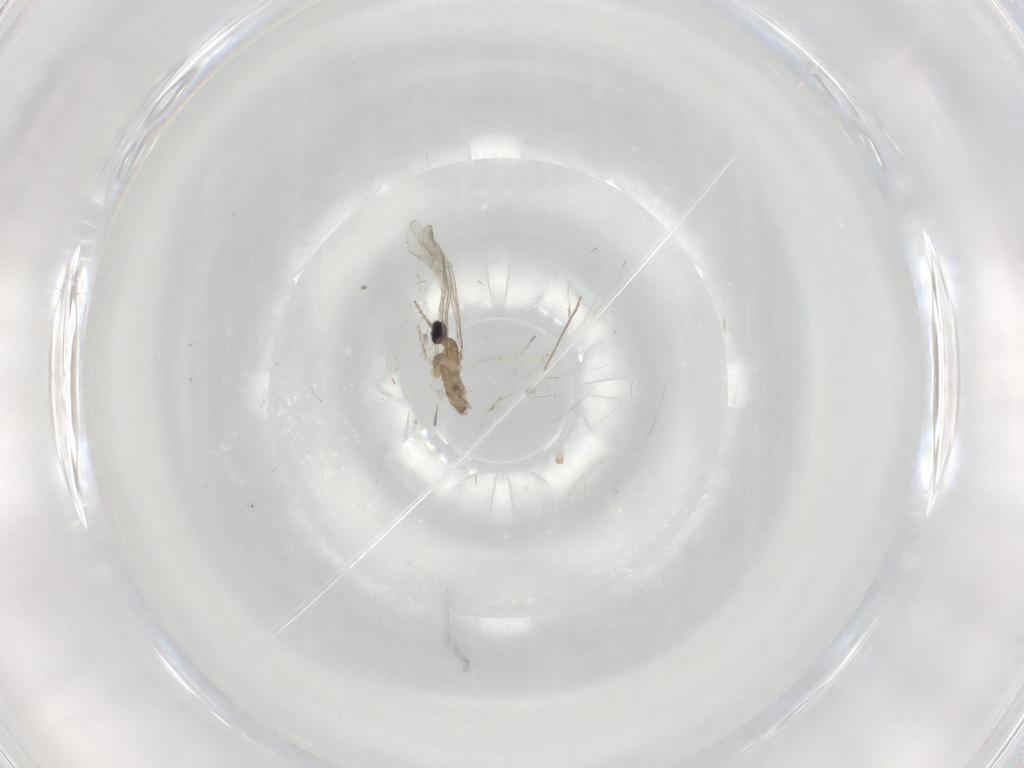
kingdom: Animalia
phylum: Arthropoda
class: Insecta
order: Diptera
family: Cecidomyiidae
